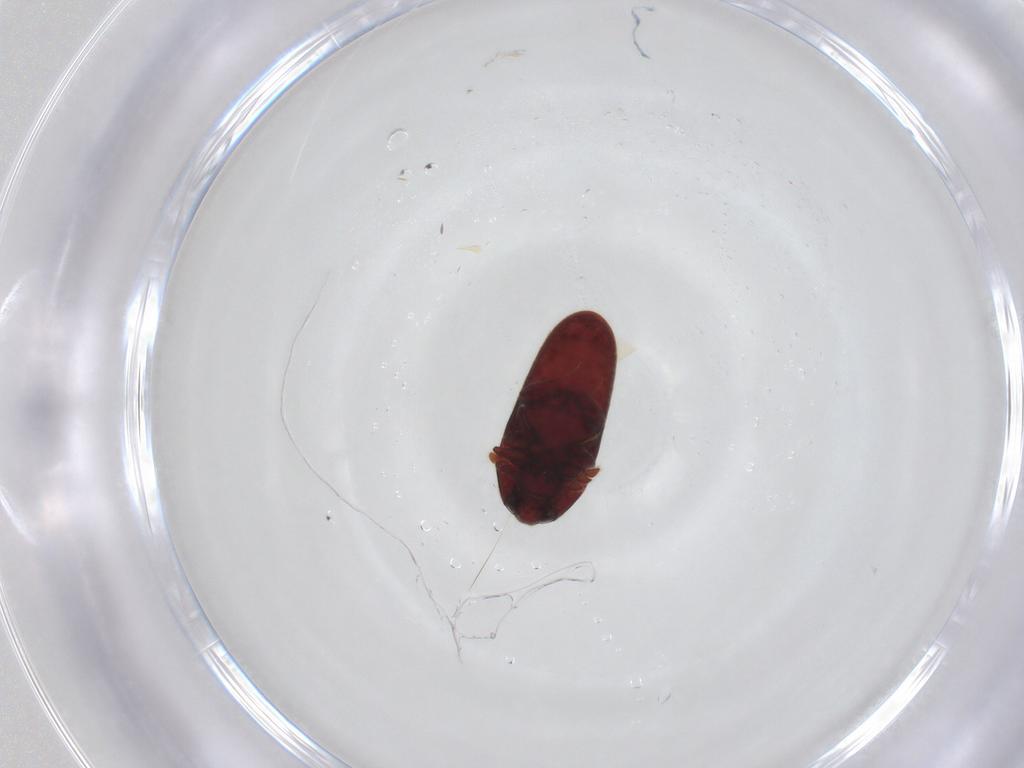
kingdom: Animalia
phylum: Arthropoda
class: Insecta
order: Coleoptera
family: Throscidae
